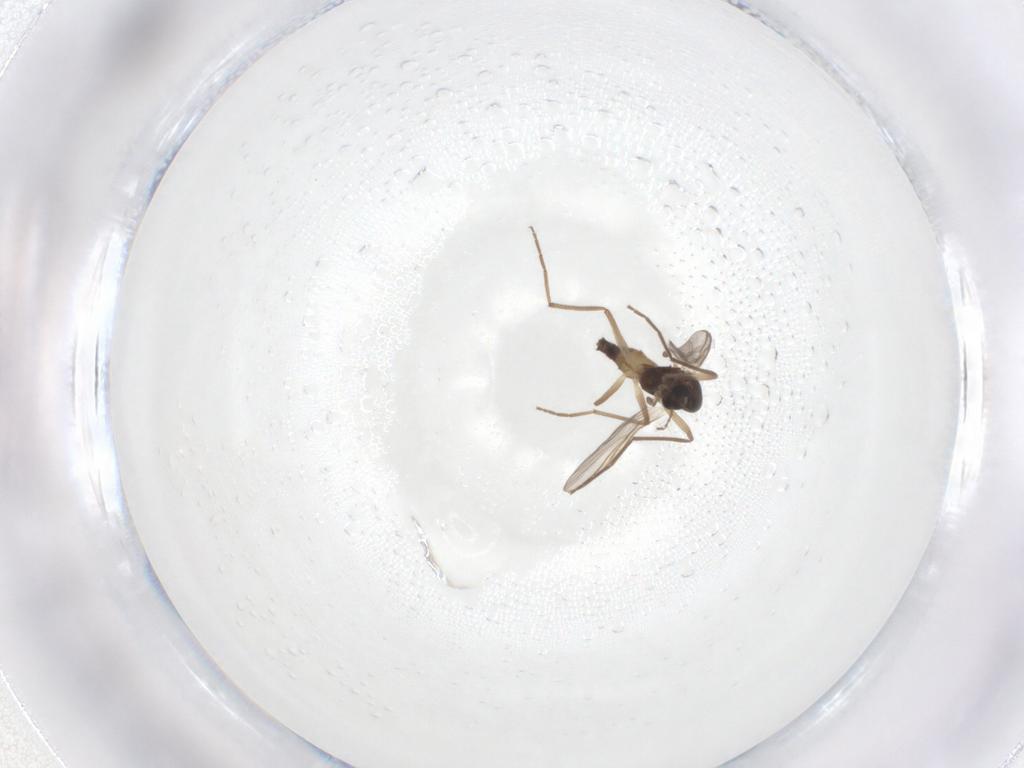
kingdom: Animalia
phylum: Arthropoda
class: Insecta
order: Diptera
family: Chironomidae
